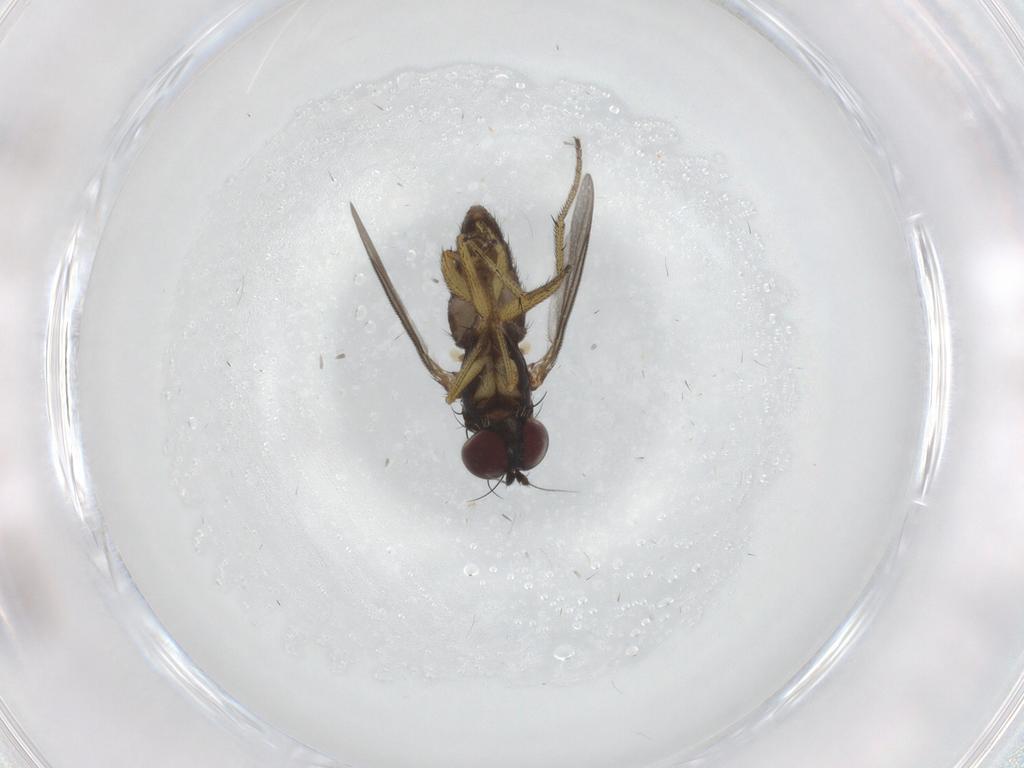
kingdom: Animalia
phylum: Arthropoda
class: Insecta
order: Diptera
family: Dolichopodidae
